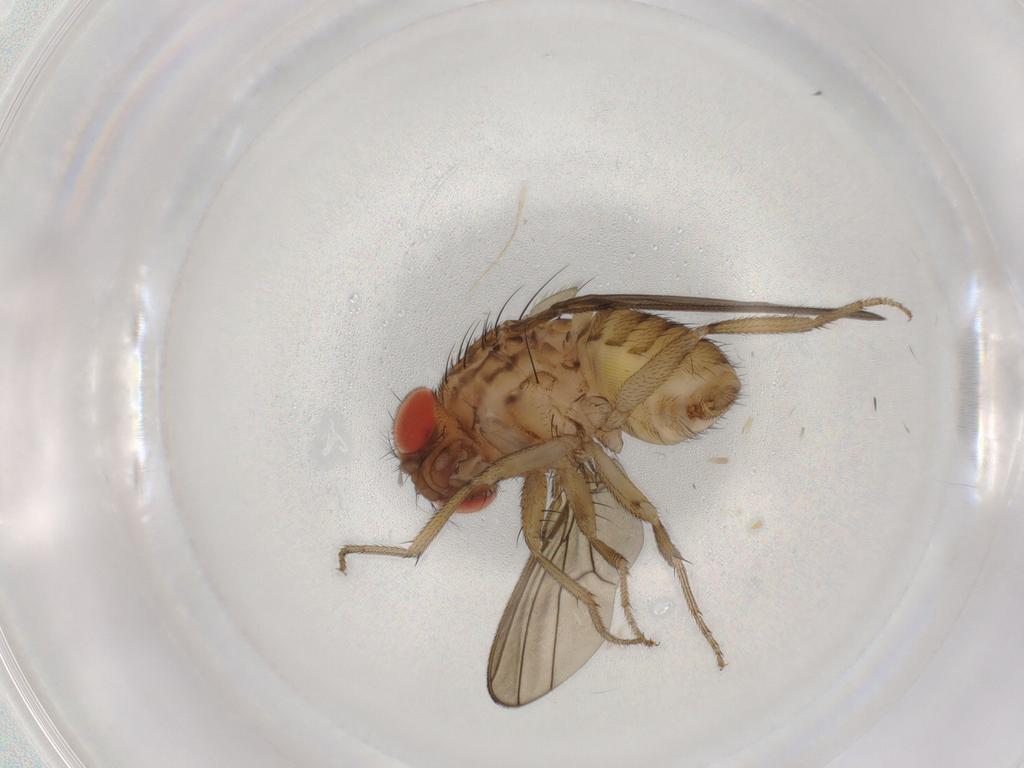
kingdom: Animalia
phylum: Arthropoda
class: Insecta
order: Diptera
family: Drosophilidae
